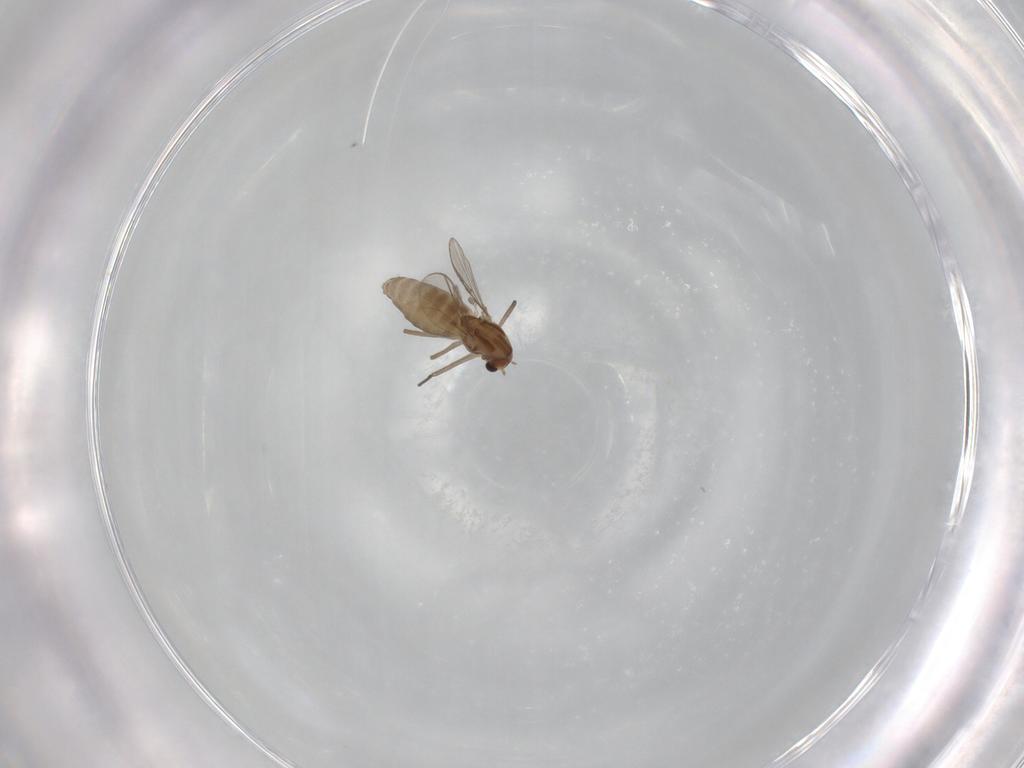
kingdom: Animalia
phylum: Arthropoda
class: Insecta
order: Diptera
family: Chironomidae
